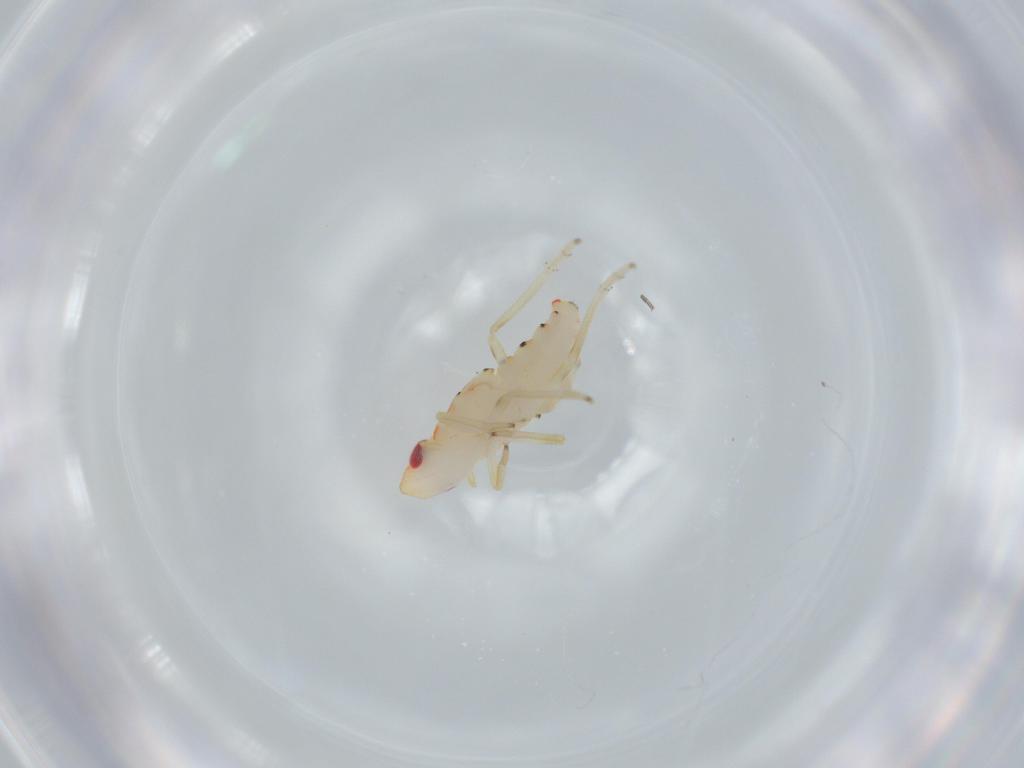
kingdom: Animalia
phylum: Arthropoda
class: Insecta
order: Hemiptera
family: Tropiduchidae
